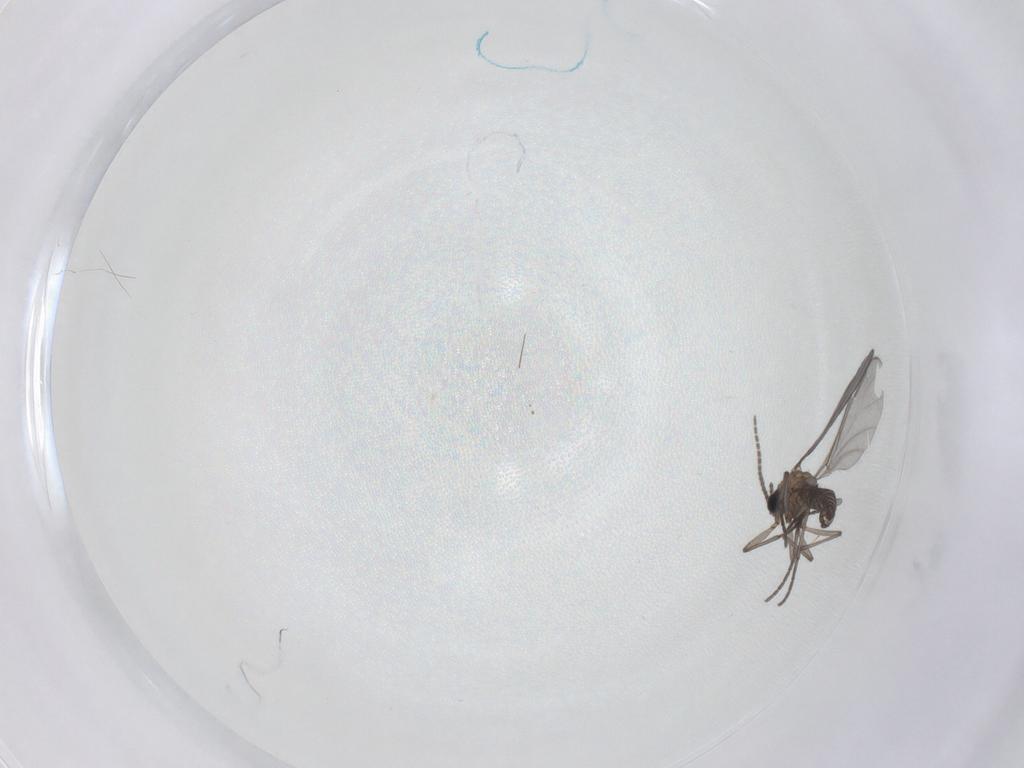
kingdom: Animalia
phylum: Arthropoda
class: Insecta
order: Diptera
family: Sciaridae
